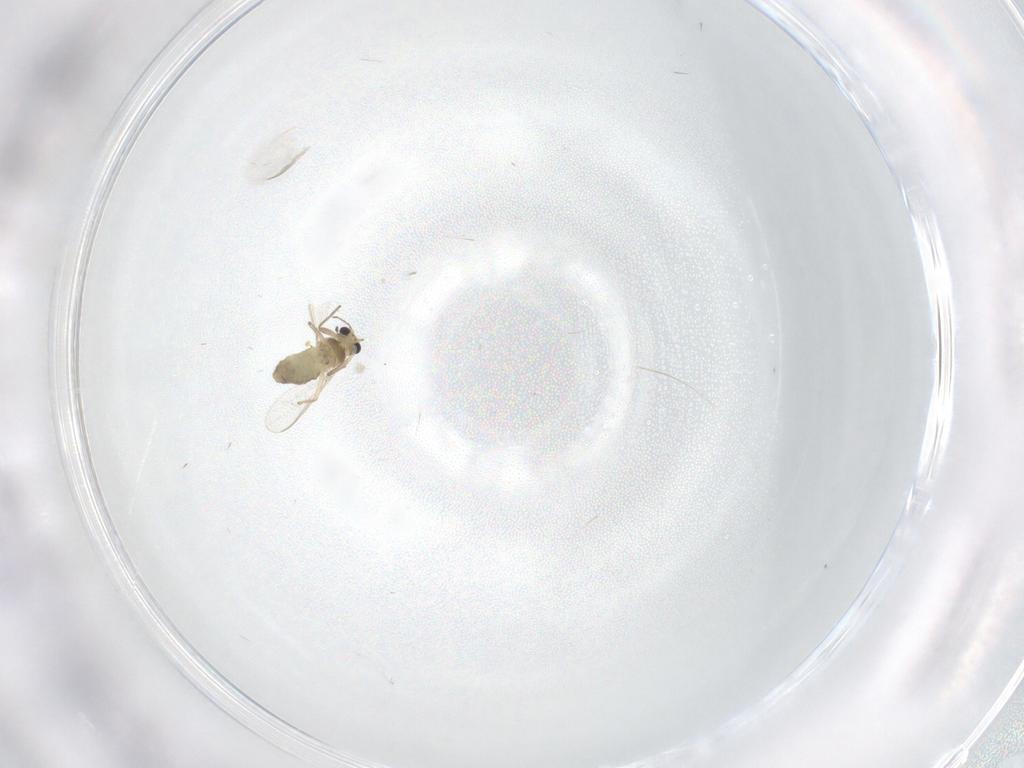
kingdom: Animalia
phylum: Arthropoda
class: Insecta
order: Diptera
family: Chironomidae
